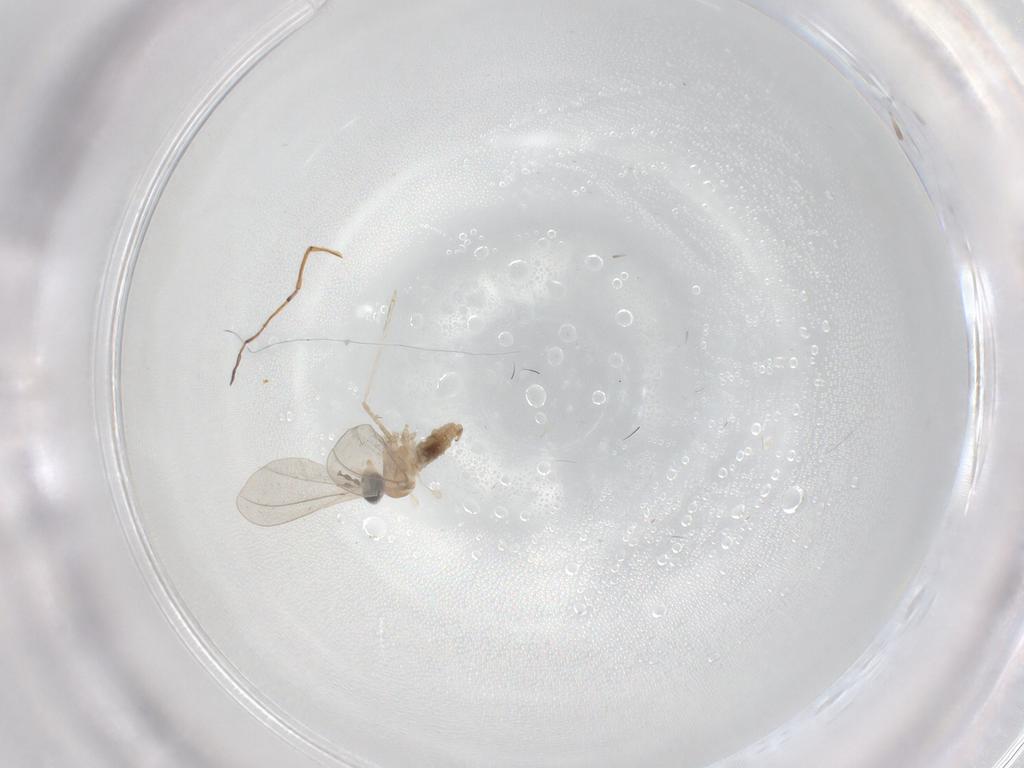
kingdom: Animalia
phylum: Arthropoda
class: Insecta
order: Diptera
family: Cecidomyiidae
